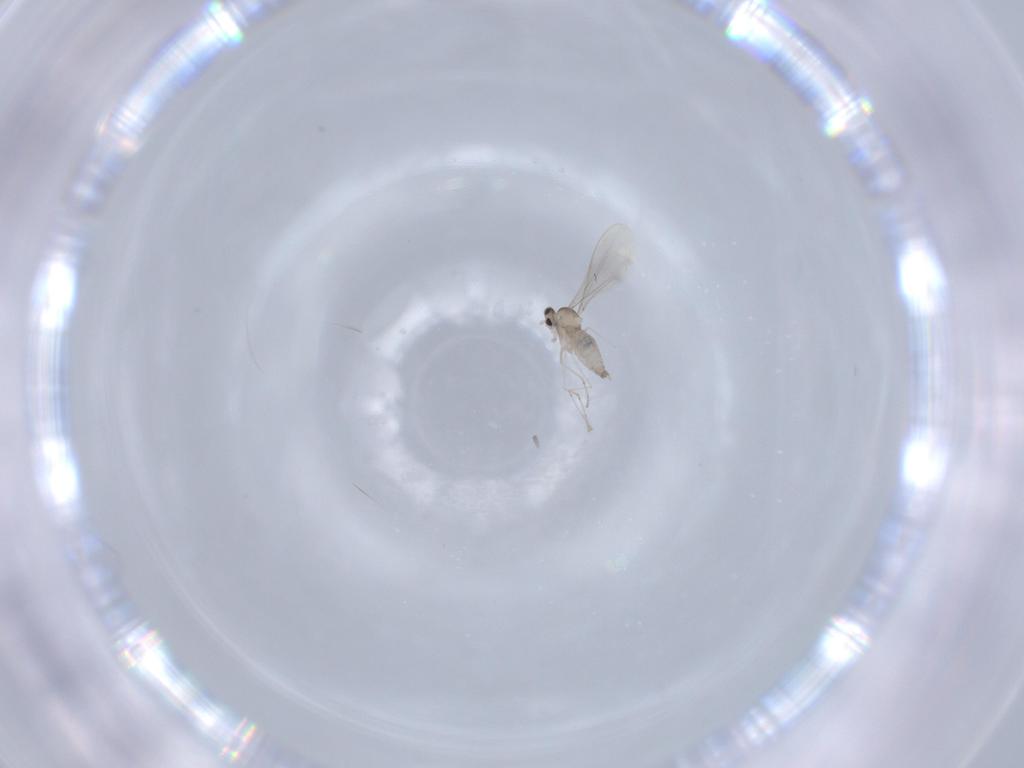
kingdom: Animalia
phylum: Arthropoda
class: Insecta
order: Diptera
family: Cecidomyiidae
